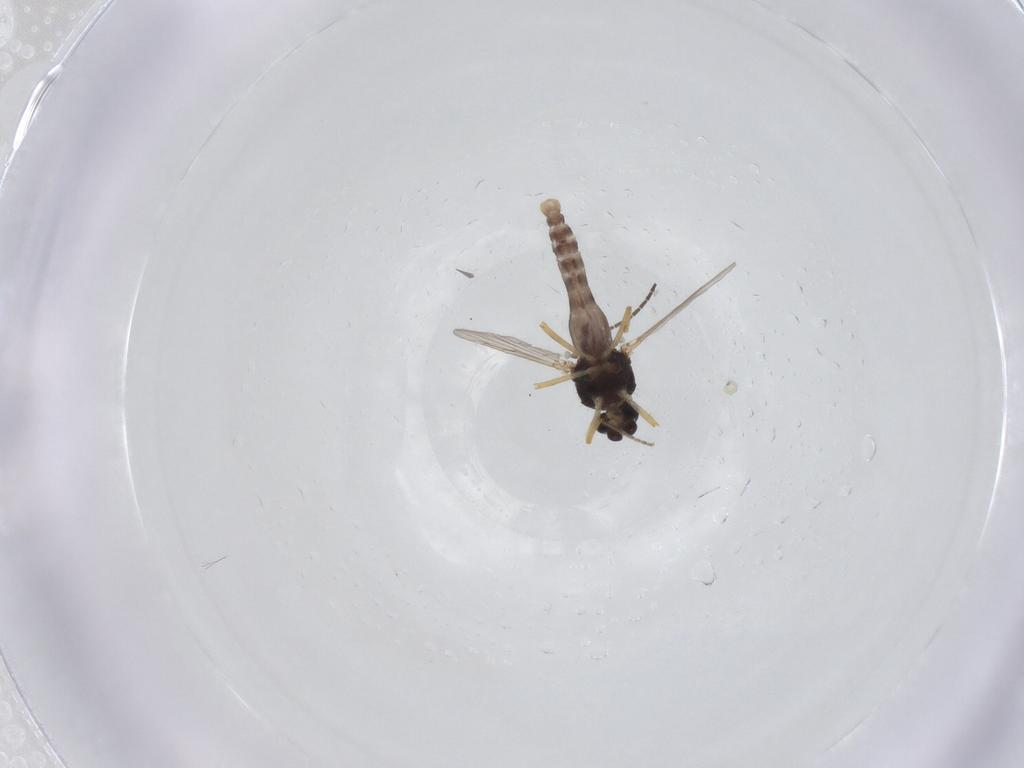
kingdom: Animalia
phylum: Arthropoda
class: Insecta
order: Diptera
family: Ceratopogonidae
